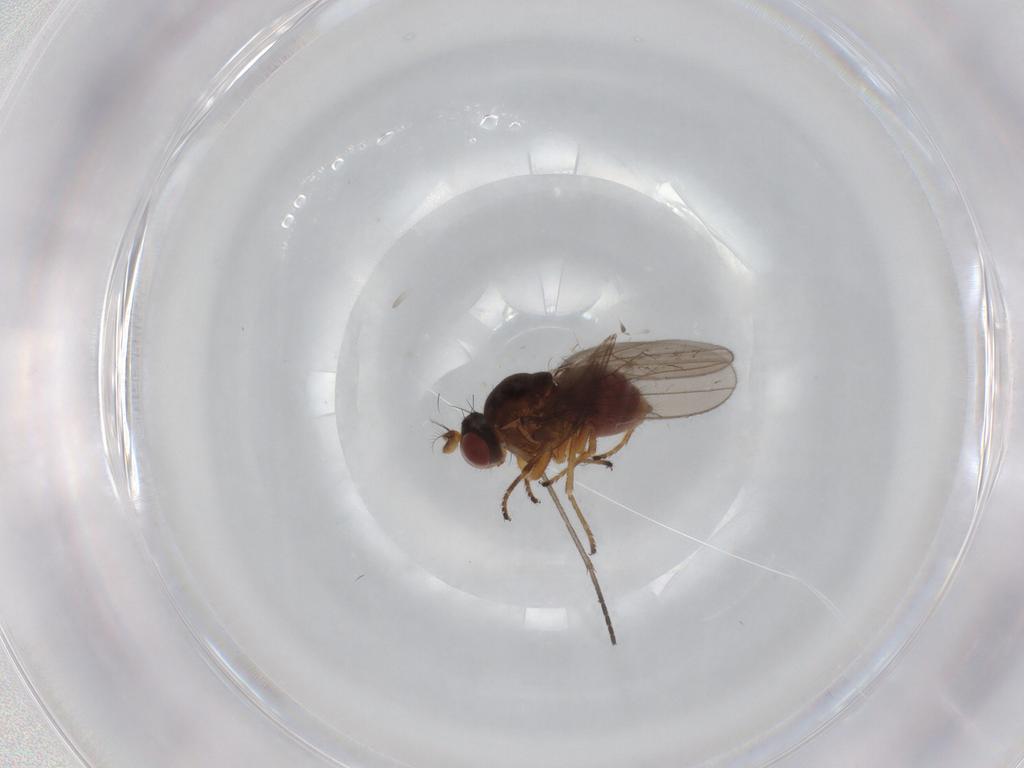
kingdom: Animalia
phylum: Arthropoda
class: Insecta
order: Diptera
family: Ephydridae
